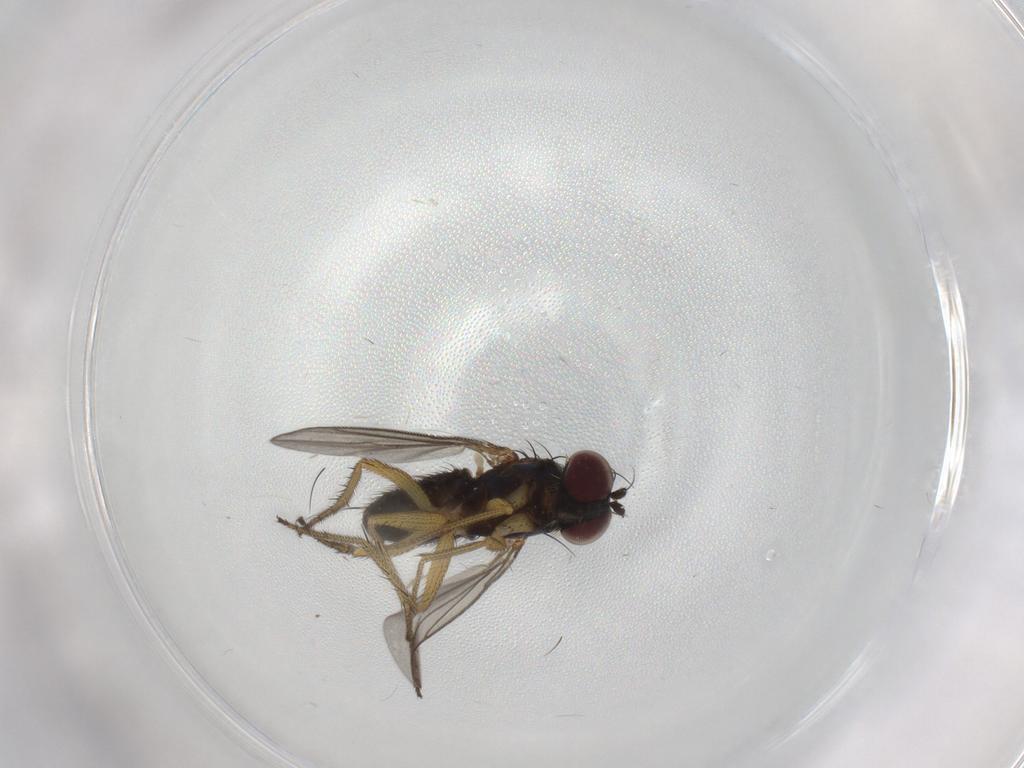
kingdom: Animalia
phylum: Arthropoda
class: Insecta
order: Diptera
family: Sciaridae
